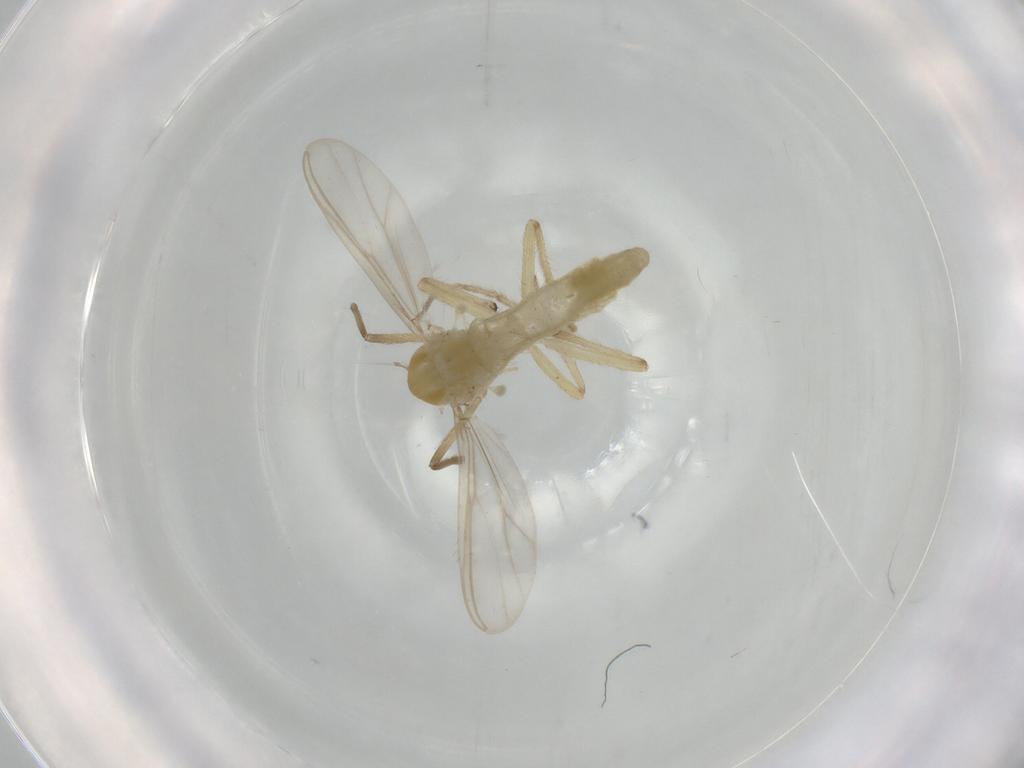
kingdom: Animalia
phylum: Arthropoda
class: Insecta
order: Diptera
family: Chironomidae
